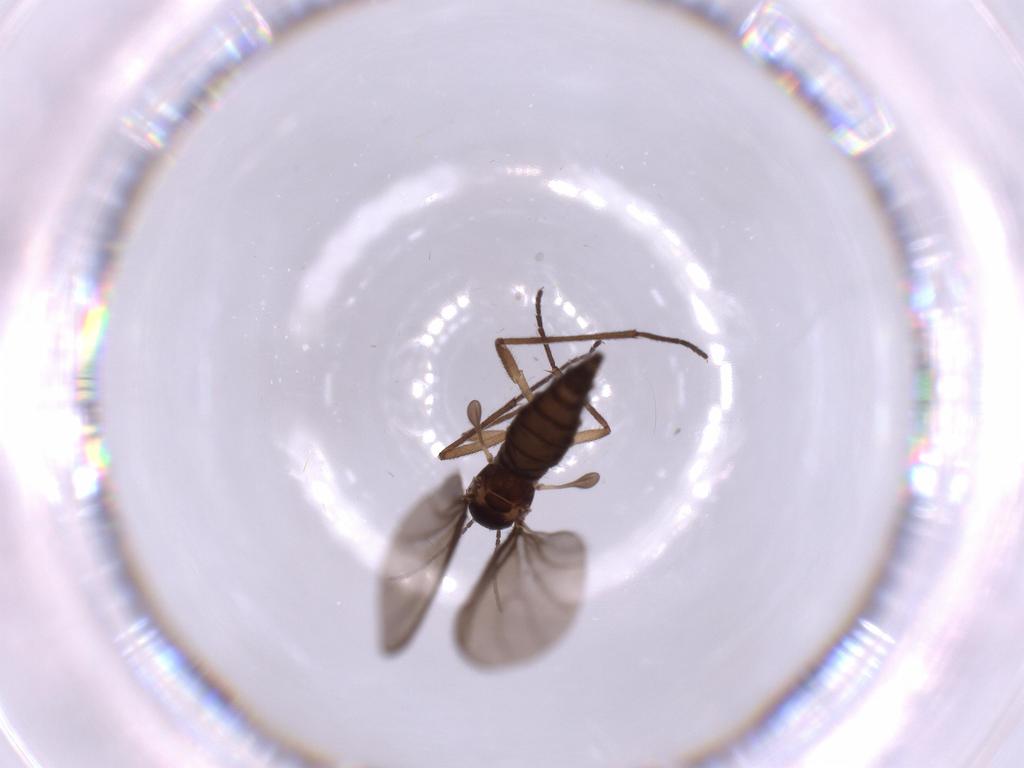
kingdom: Animalia
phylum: Arthropoda
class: Insecta
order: Diptera
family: Sciaridae
